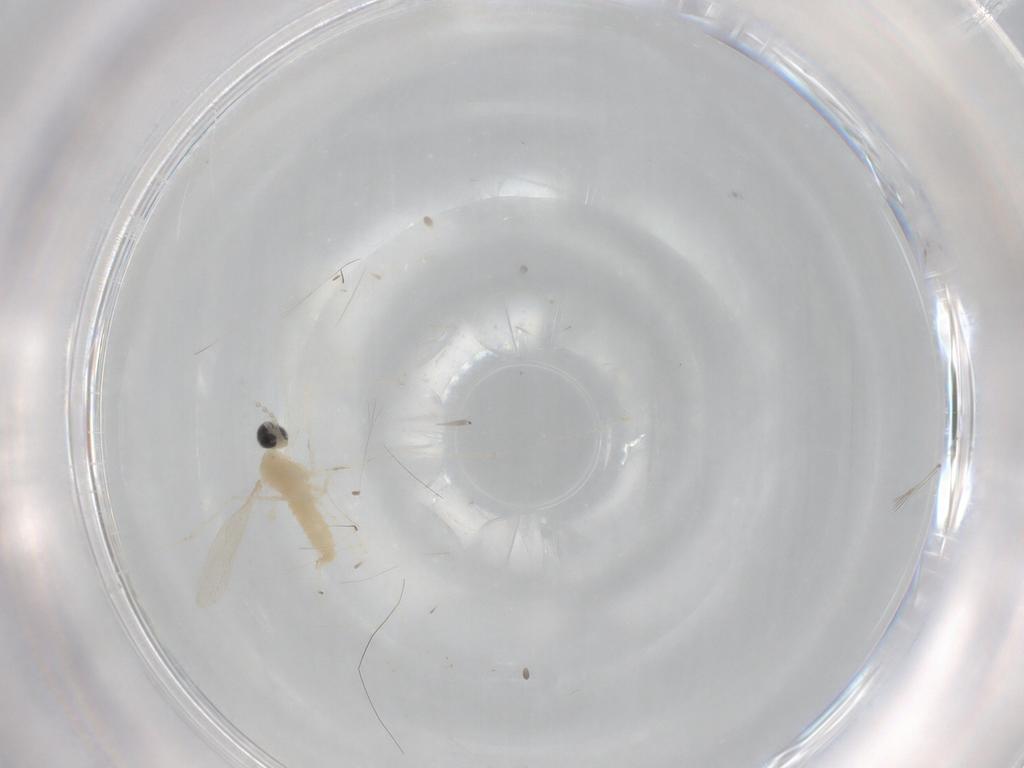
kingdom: Animalia
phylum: Arthropoda
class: Insecta
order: Diptera
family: Cecidomyiidae
